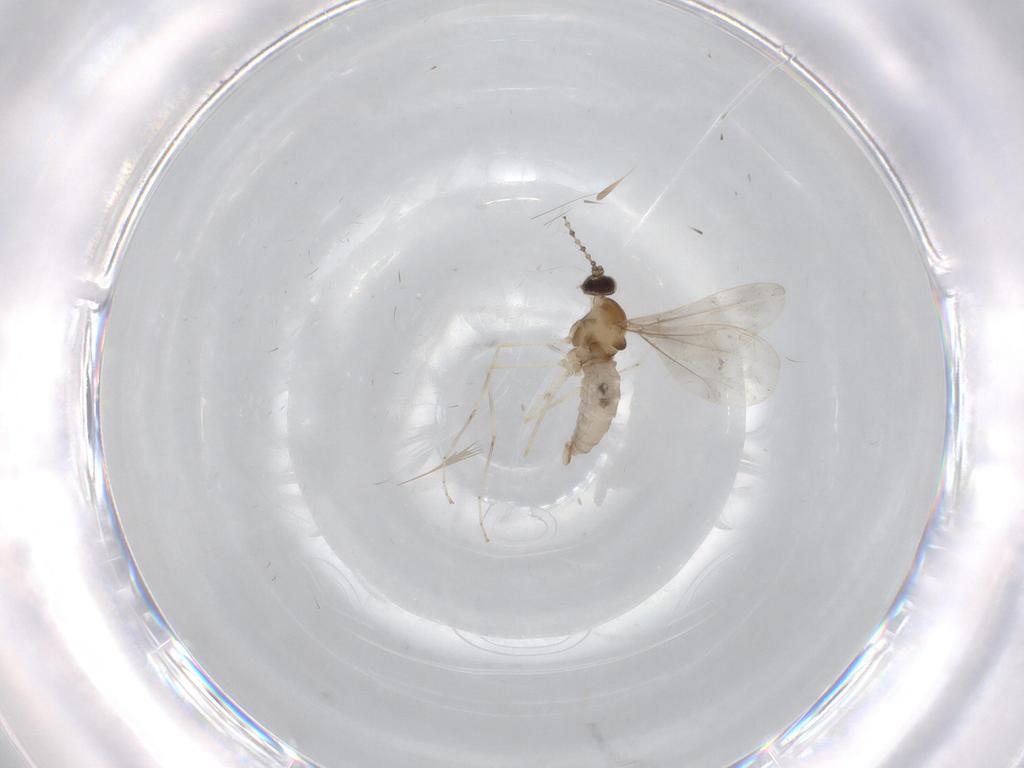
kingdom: Animalia
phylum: Arthropoda
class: Insecta
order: Diptera
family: Cecidomyiidae
